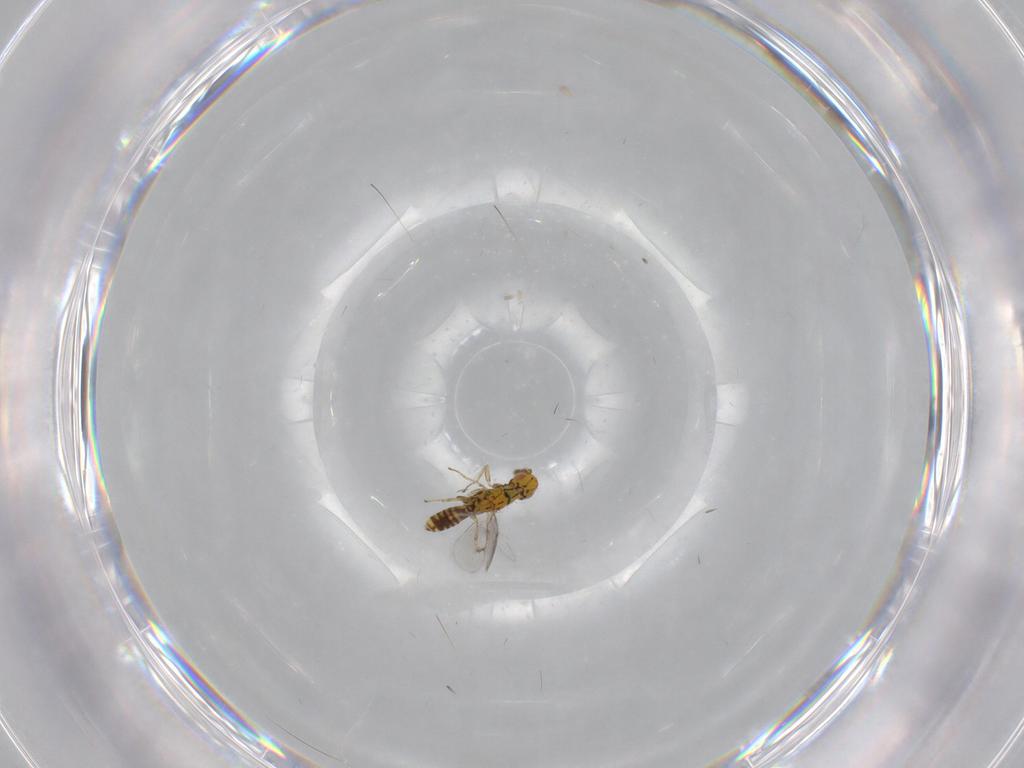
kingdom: Animalia
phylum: Arthropoda
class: Insecta
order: Hymenoptera
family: Eulophidae
